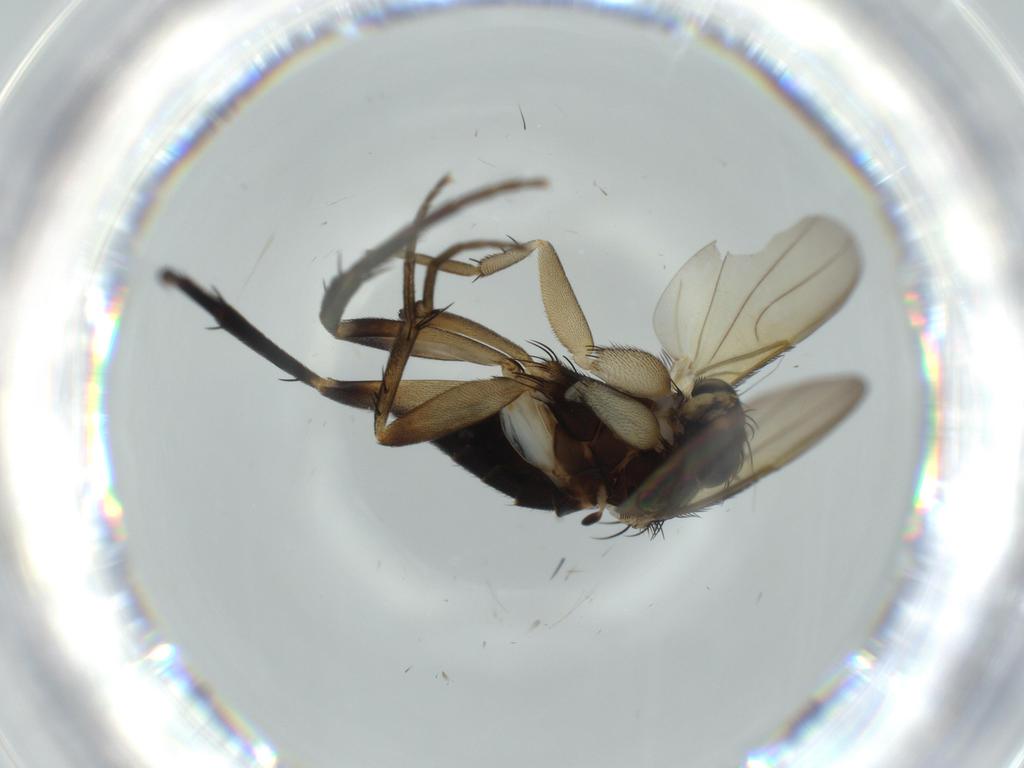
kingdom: Animalia
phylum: Arthropoda
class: Insecta
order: Diptera
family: Phoridae
